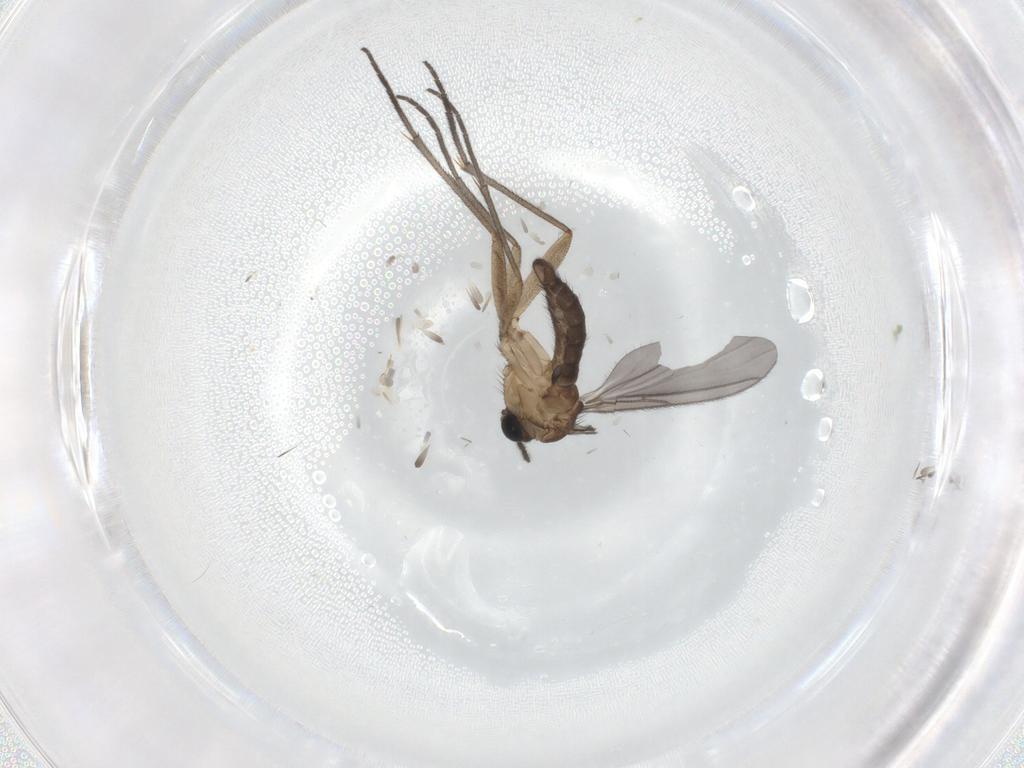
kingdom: Animalia
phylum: Arthropoda
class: Insecta
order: Diptera
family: Sciaridae
